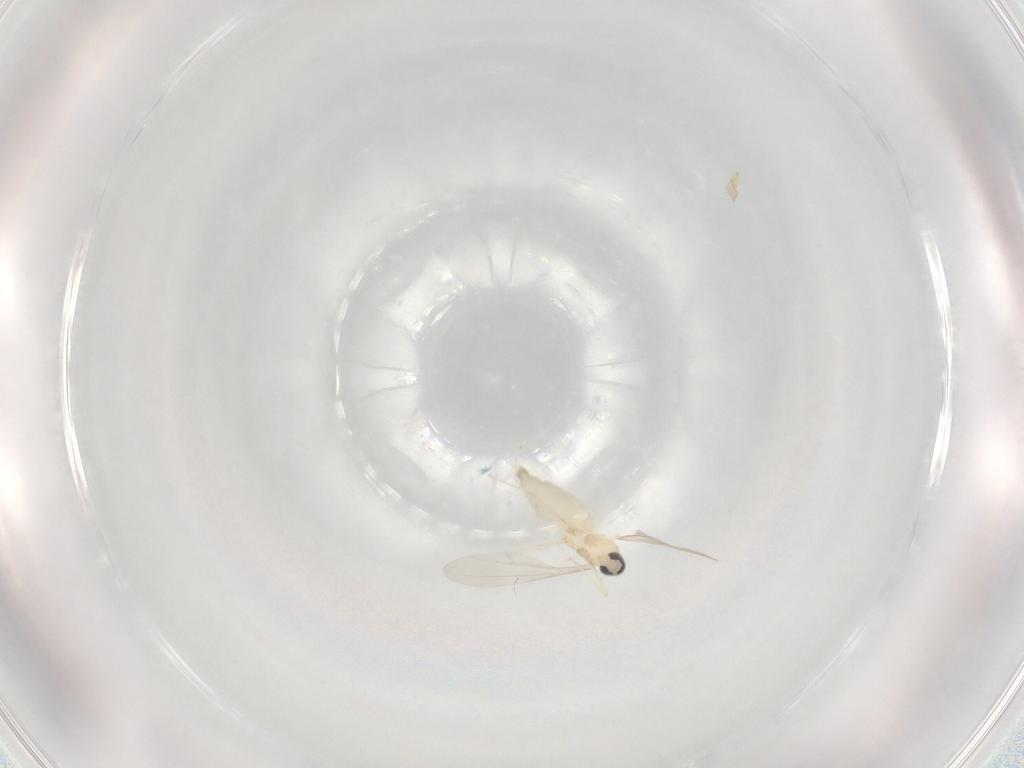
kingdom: Animalia
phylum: Arthropoda
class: Insecta
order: Diptera
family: Cecidomyiidae
